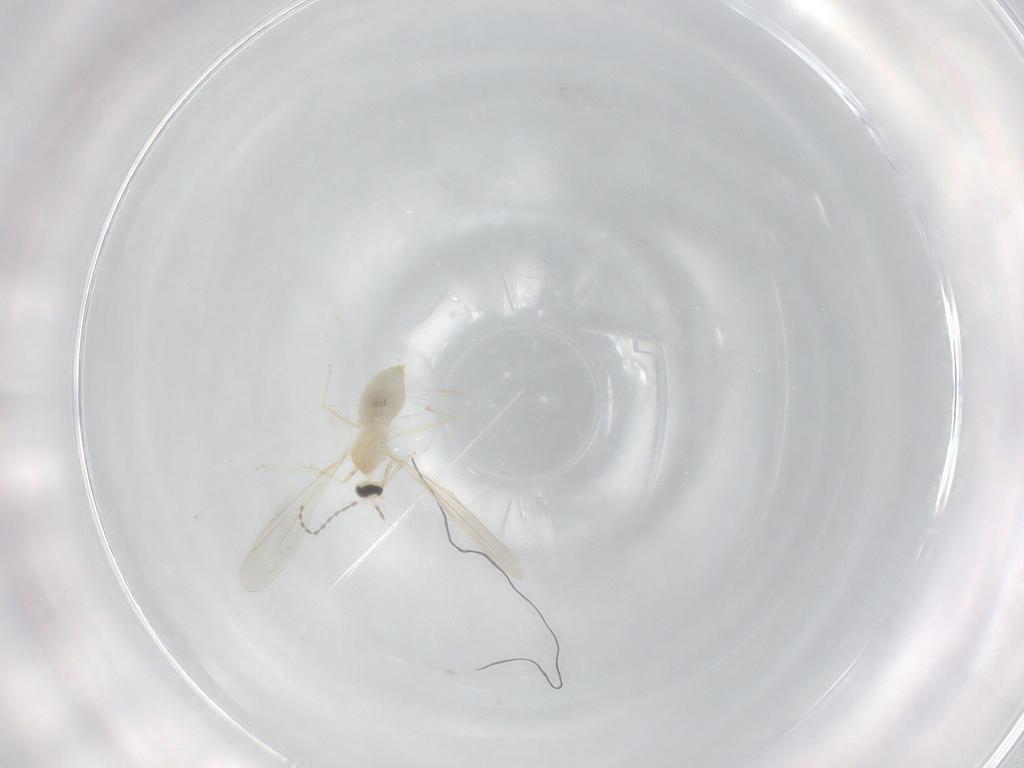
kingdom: Animalia
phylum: Arthropoda
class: Insecta
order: Diptera
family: Cecidomyiidae
